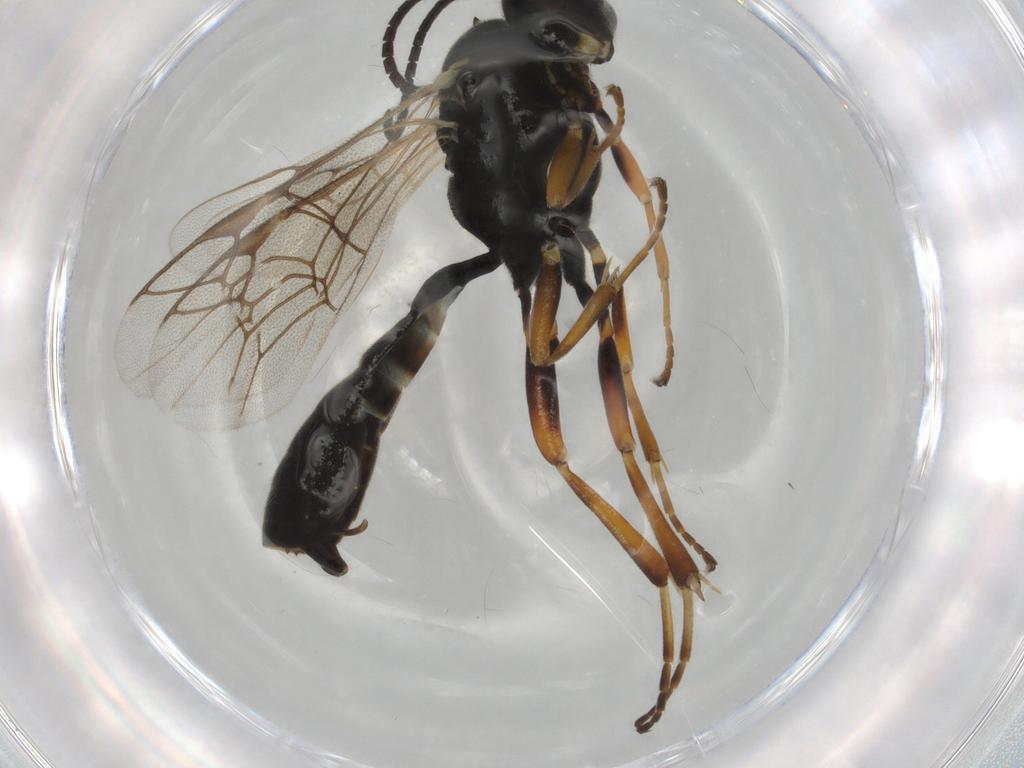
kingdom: Animalia
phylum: Arthropoda
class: Insecta
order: Hymenoptera
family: Ichneumonidae
